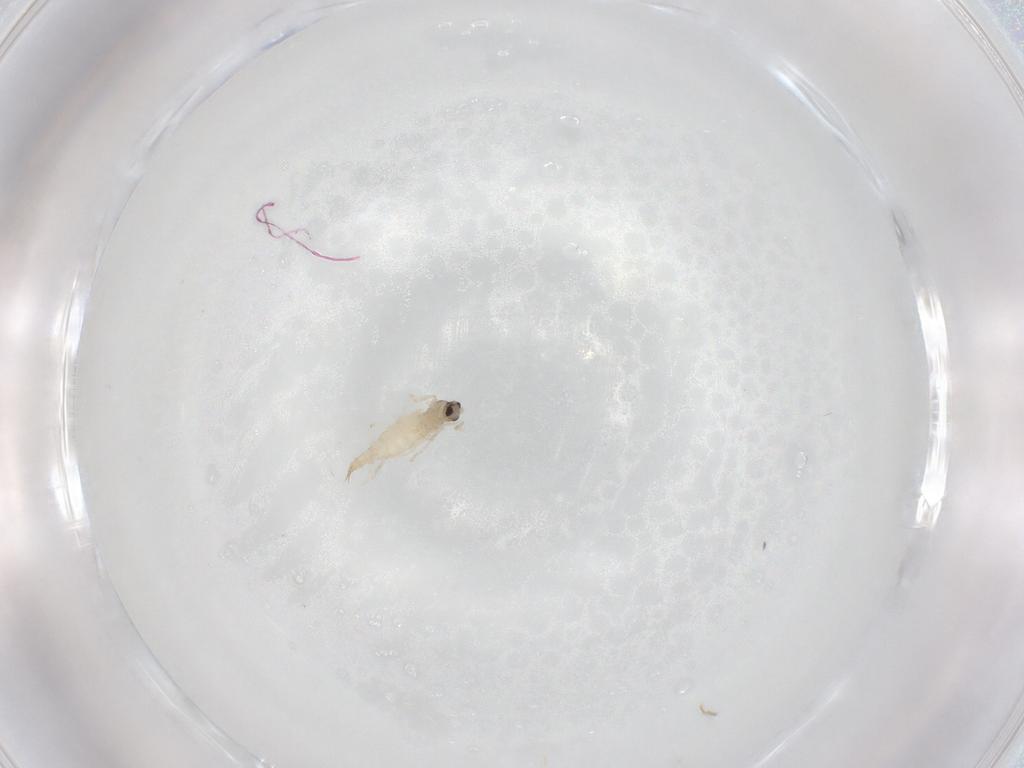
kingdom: Animalia
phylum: Arthropoda
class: Insecta
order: Diptera
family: Cecidomyiidae
